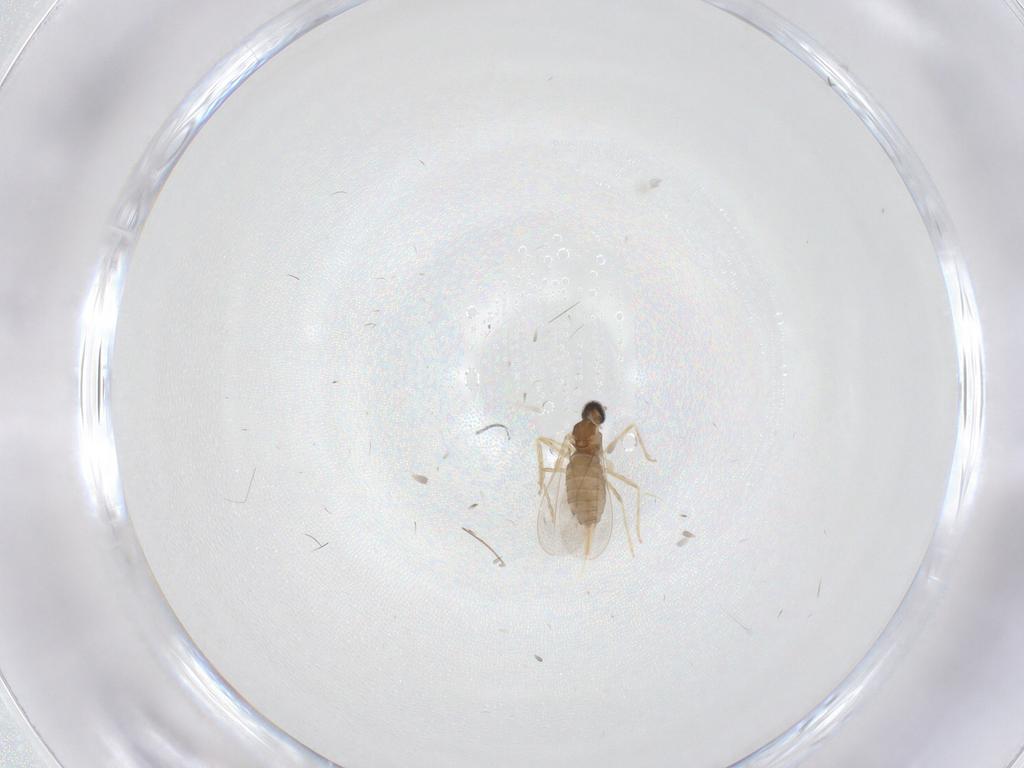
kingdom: Animalia
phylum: Arthropoda
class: Insecta
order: Diptera
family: Cecidomyiidae
